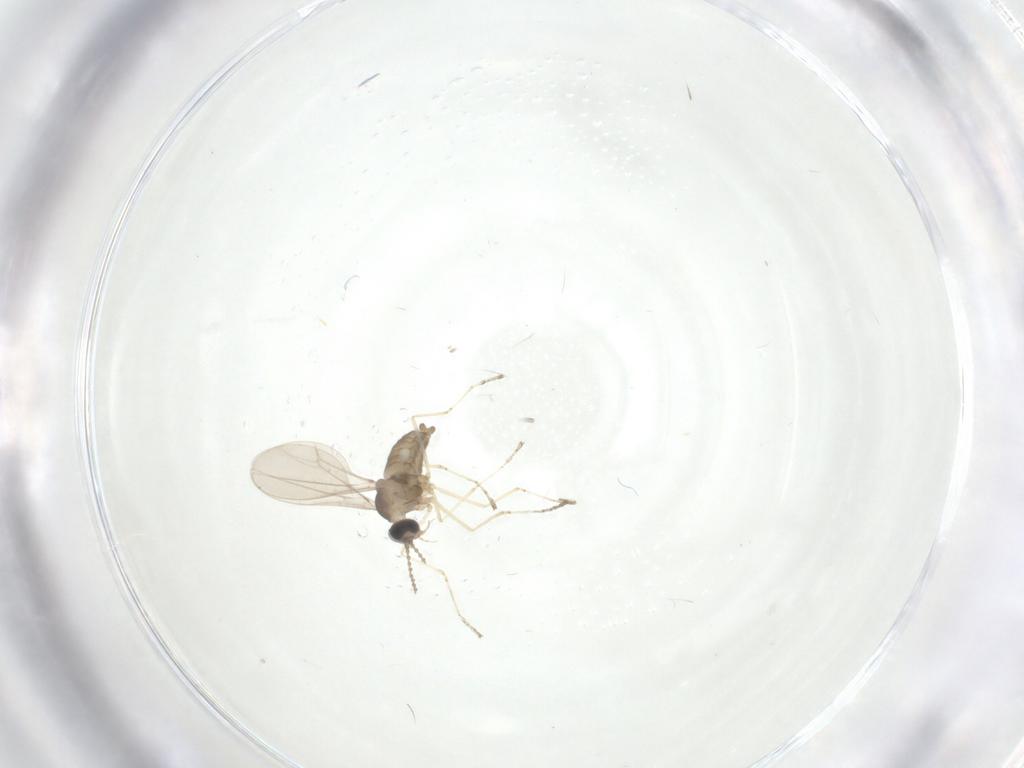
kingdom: Animalia
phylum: Arthropoda
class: Insecta
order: Diptera
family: Cecidomyiidae
